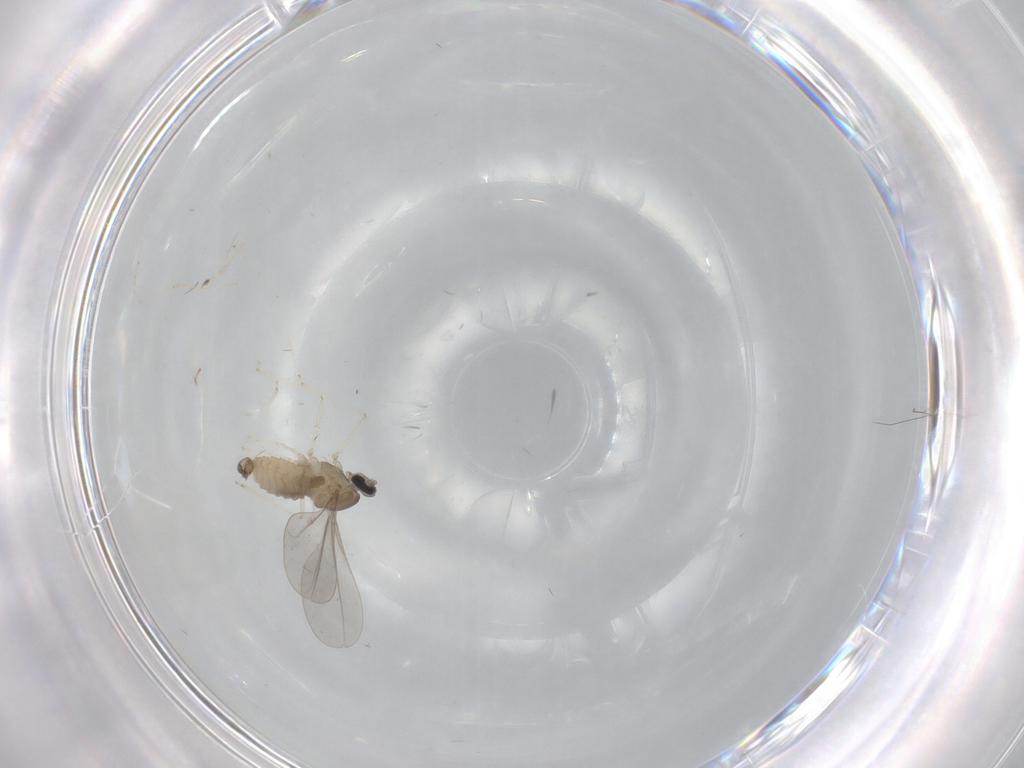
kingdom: Animalia
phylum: Arthropoda
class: Insecta
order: Diptera
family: Cecidomyiidae
